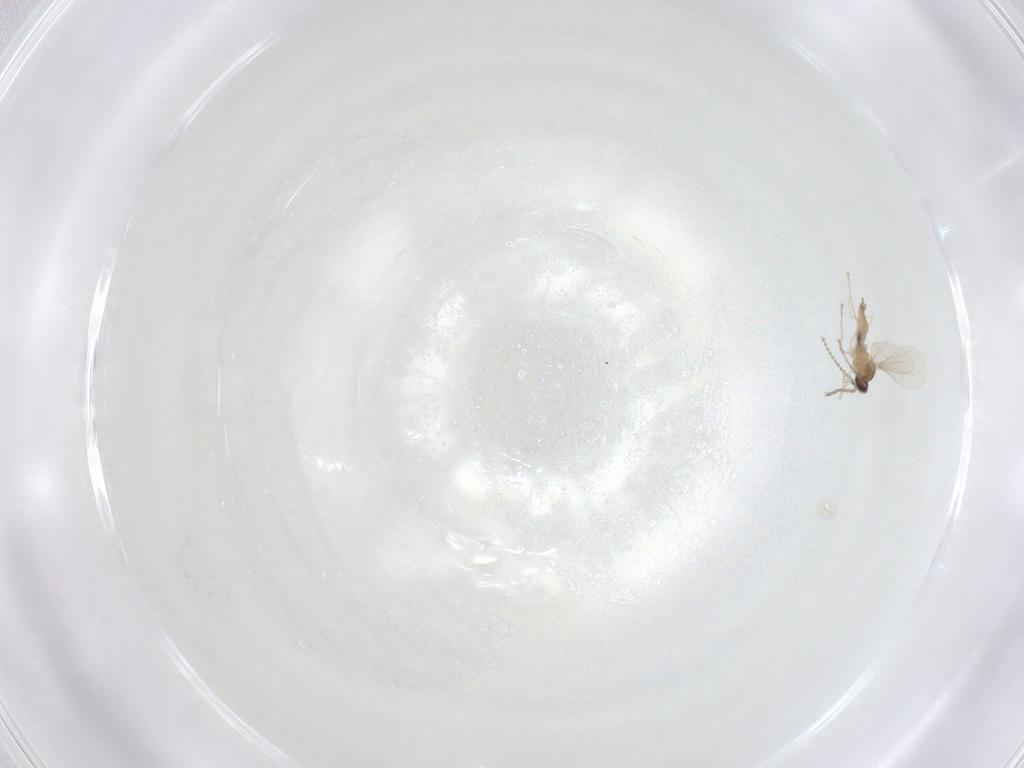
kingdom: Animalia
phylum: Arthropoda
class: Insecta
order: Diptera
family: Cecidomyiidae
